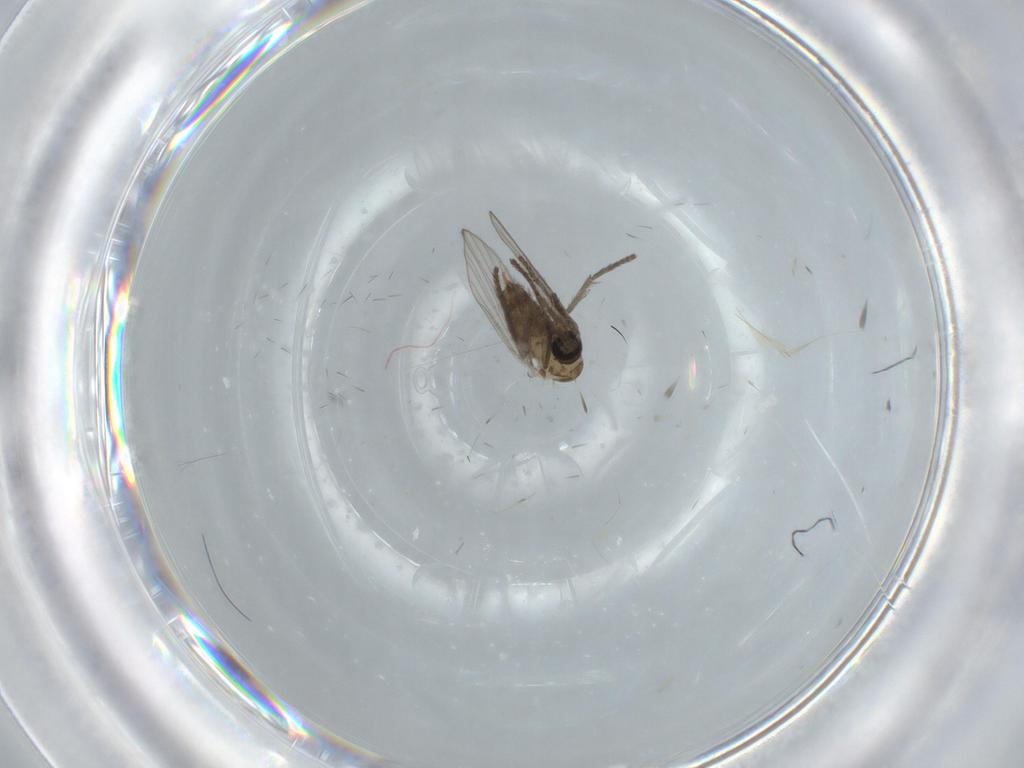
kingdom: Animalia
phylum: Arthropoda
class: Insecta
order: Diptera
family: Psychodidae
